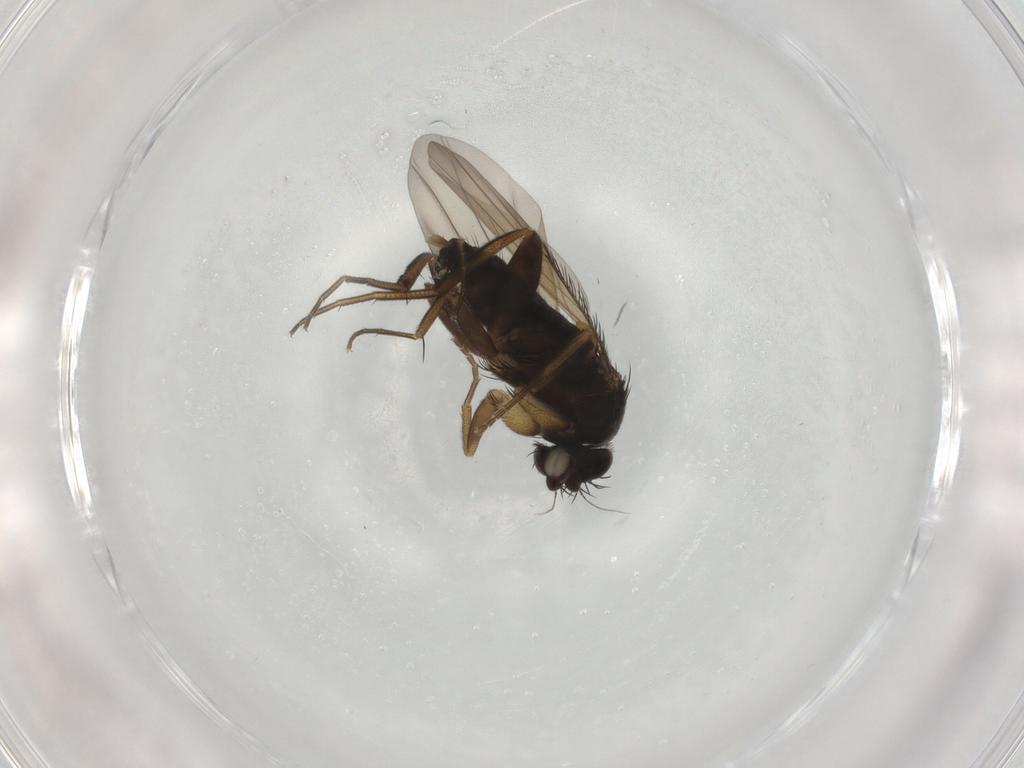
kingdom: Animalia
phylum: Arthropoda
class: Insecta
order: Diptera
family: Phoridae
